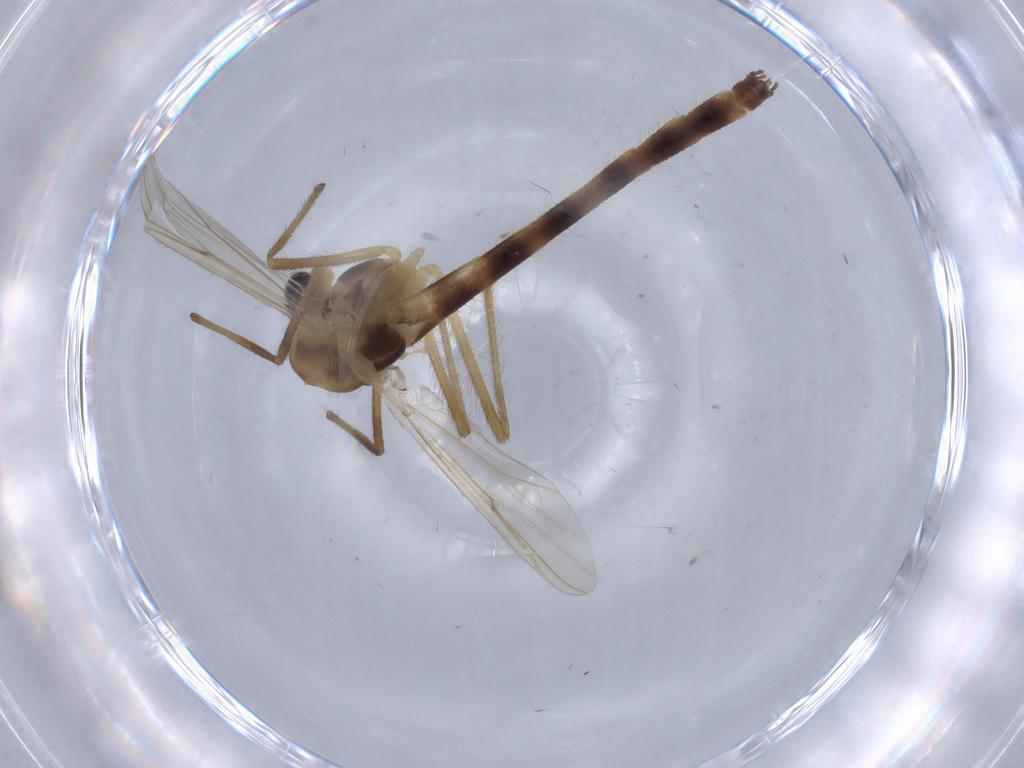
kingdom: Animalia
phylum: Arthropoda
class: Insecta
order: Diptera
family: Chironomidae
